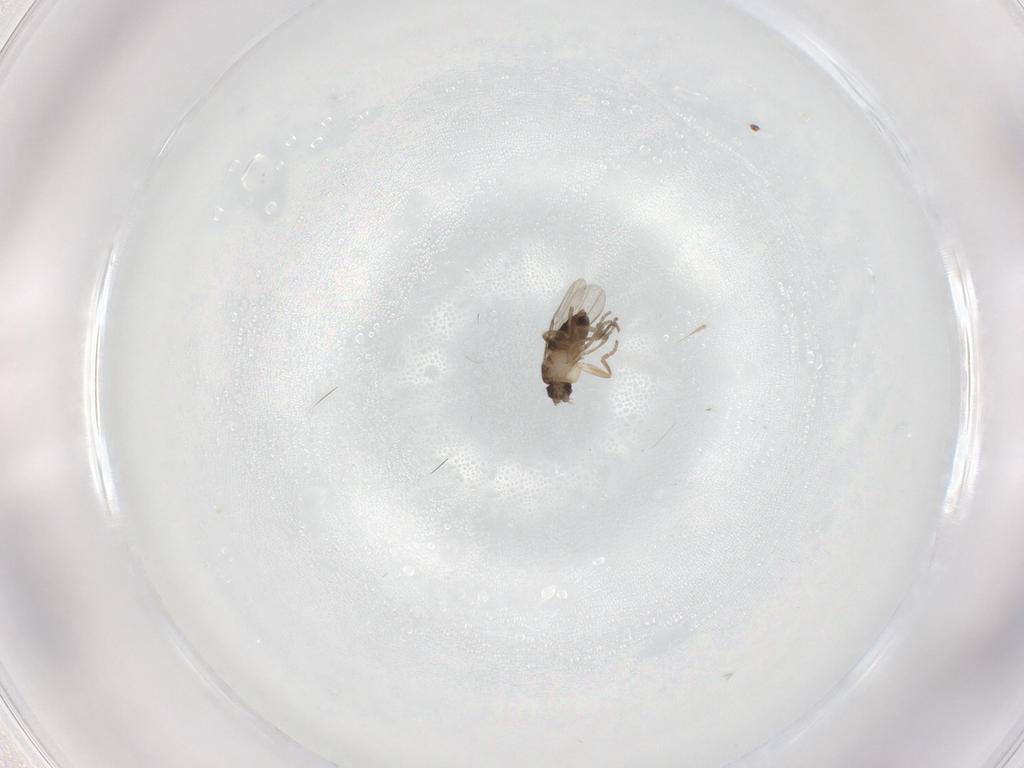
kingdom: Animalia
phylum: Arthropoda
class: Insecta
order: Diptera
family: Phoridae
